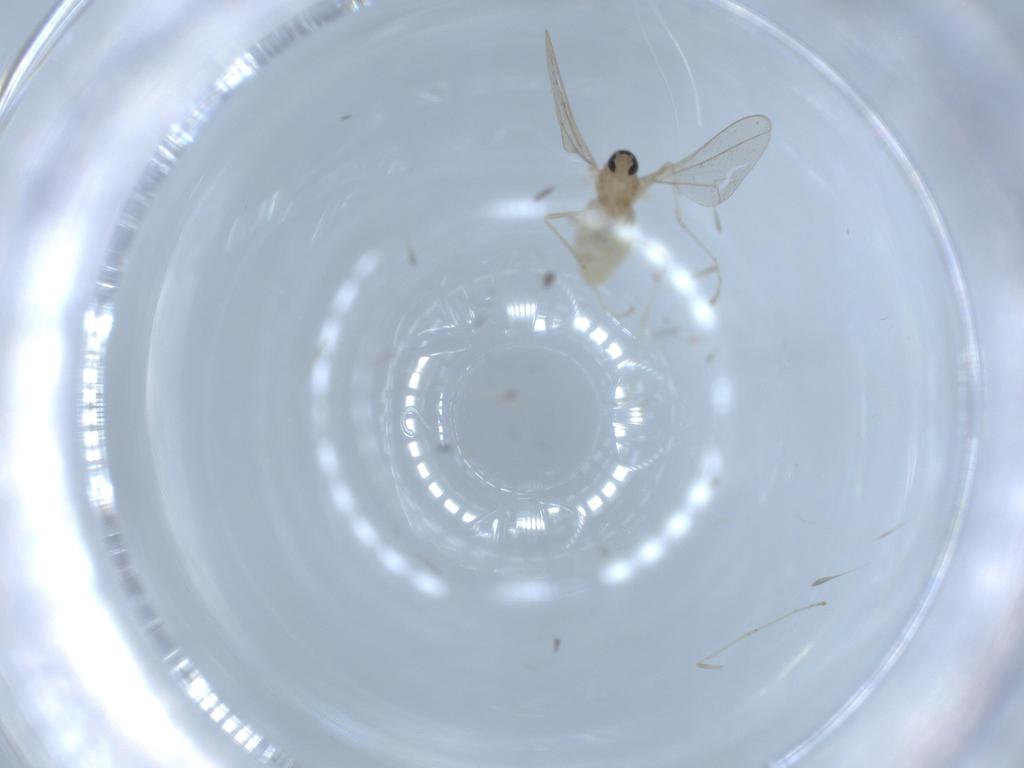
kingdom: Animalia
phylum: Arthropoda
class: Insecta
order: Diptera
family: Cecidomyiidae
